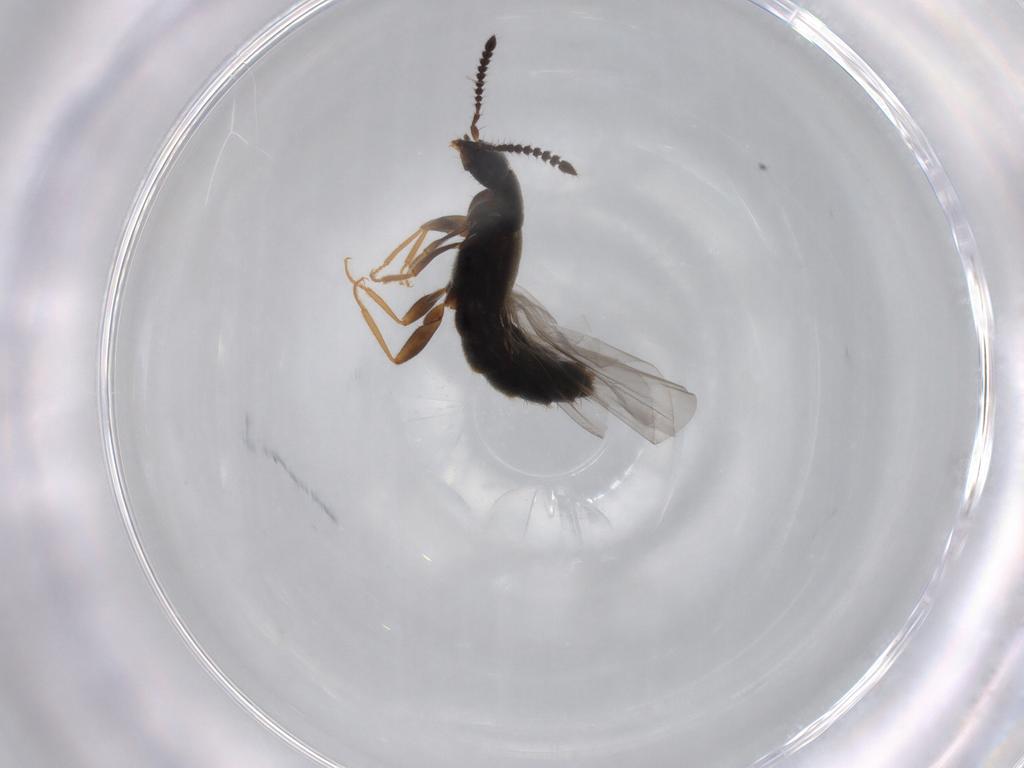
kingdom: Animalia
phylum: Arthropoda
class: Insecta
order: Coleoptera
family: Staphylinidae
